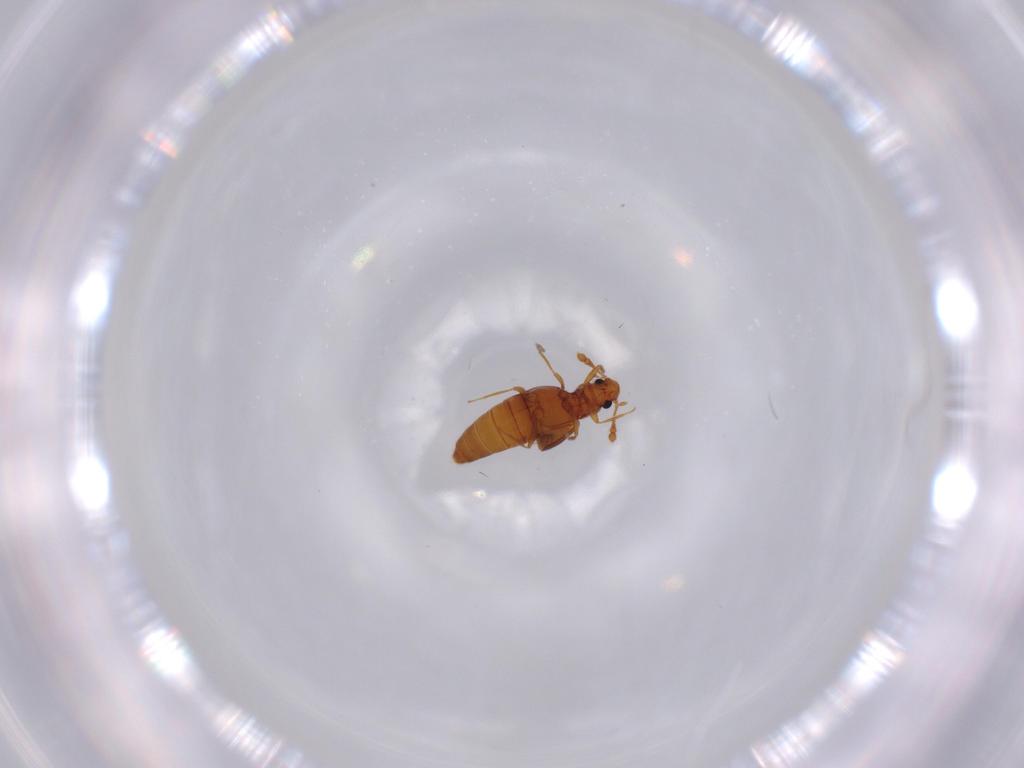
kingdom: Animalia
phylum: Arthropoda
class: Insecta
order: Coleoptera
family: Staphylinidae
